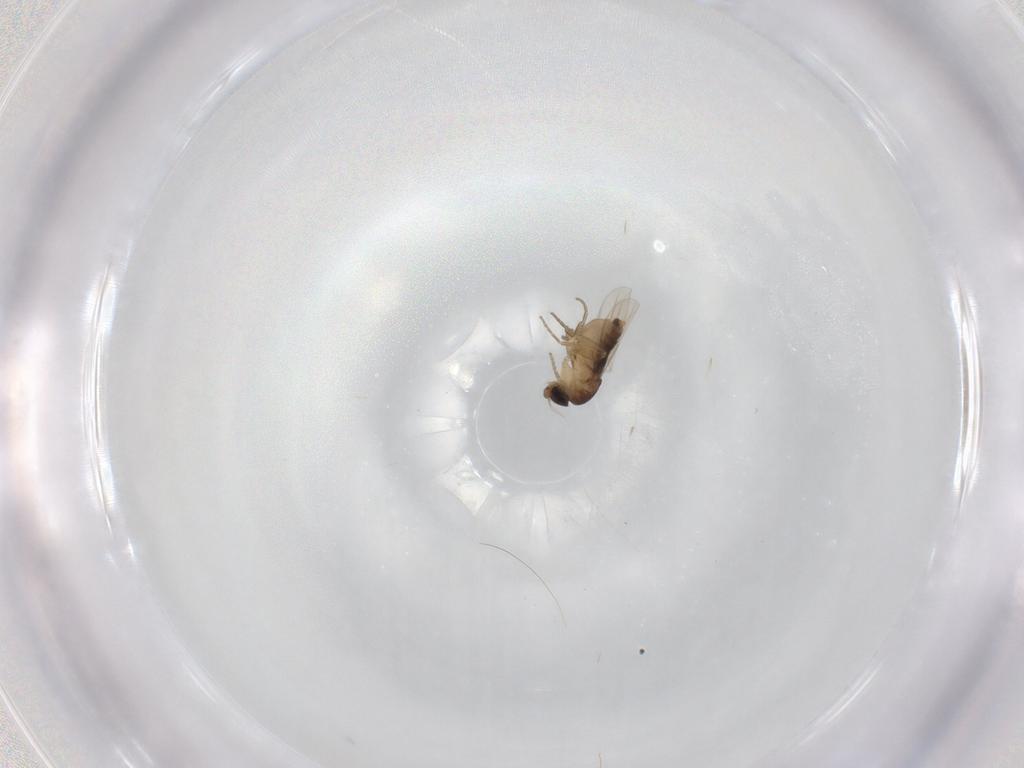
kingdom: Animalia
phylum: Arthropoda
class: Insecta
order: Diptera
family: Phoridae
